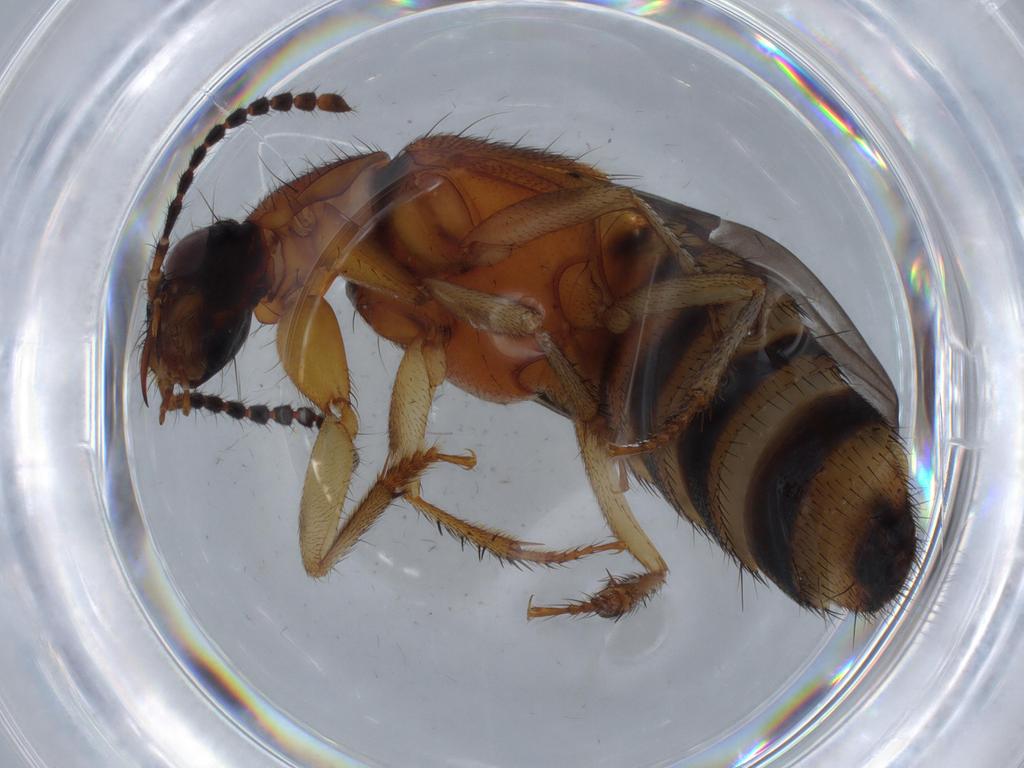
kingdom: Animalia
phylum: Arthropoda
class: Insecta
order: Coleoptera
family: Staphylinidae
